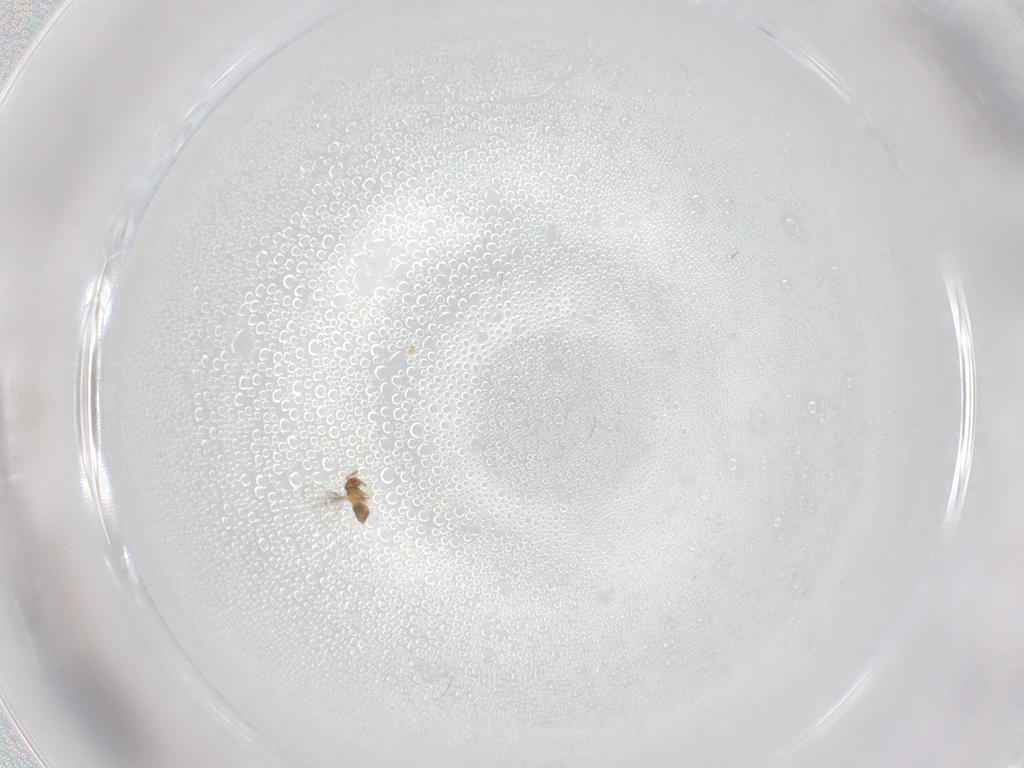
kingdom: Animalia
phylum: Arthropoda
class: Insecta
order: Hymenoptera
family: Trichogrammatidae
